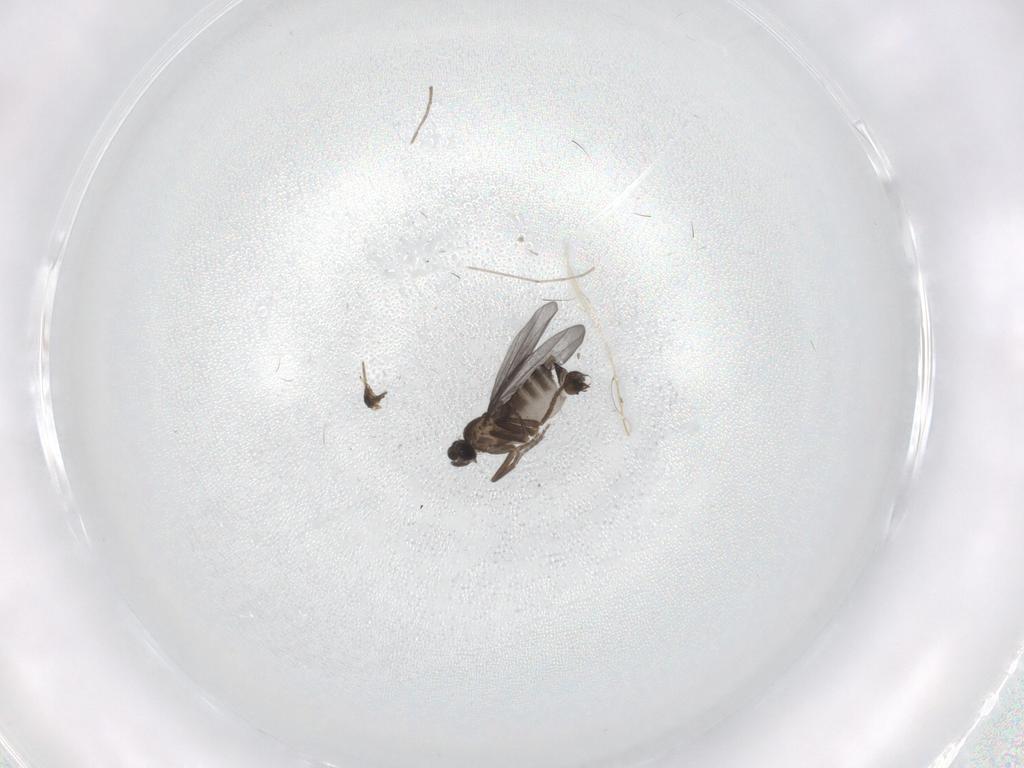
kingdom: Animalia
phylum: Arthropoda
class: Insecta
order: Diptera
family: Phoridae
